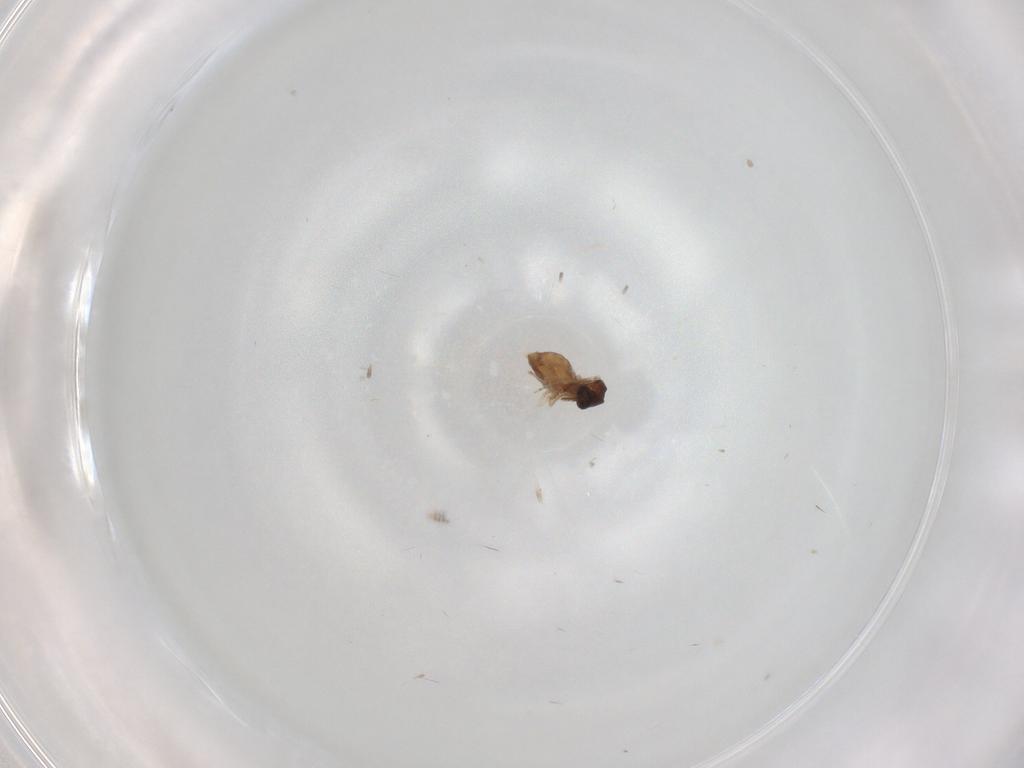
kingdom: Animalia
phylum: Arthropoda
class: Insecta
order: Diptera
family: Ceratopogonidae
